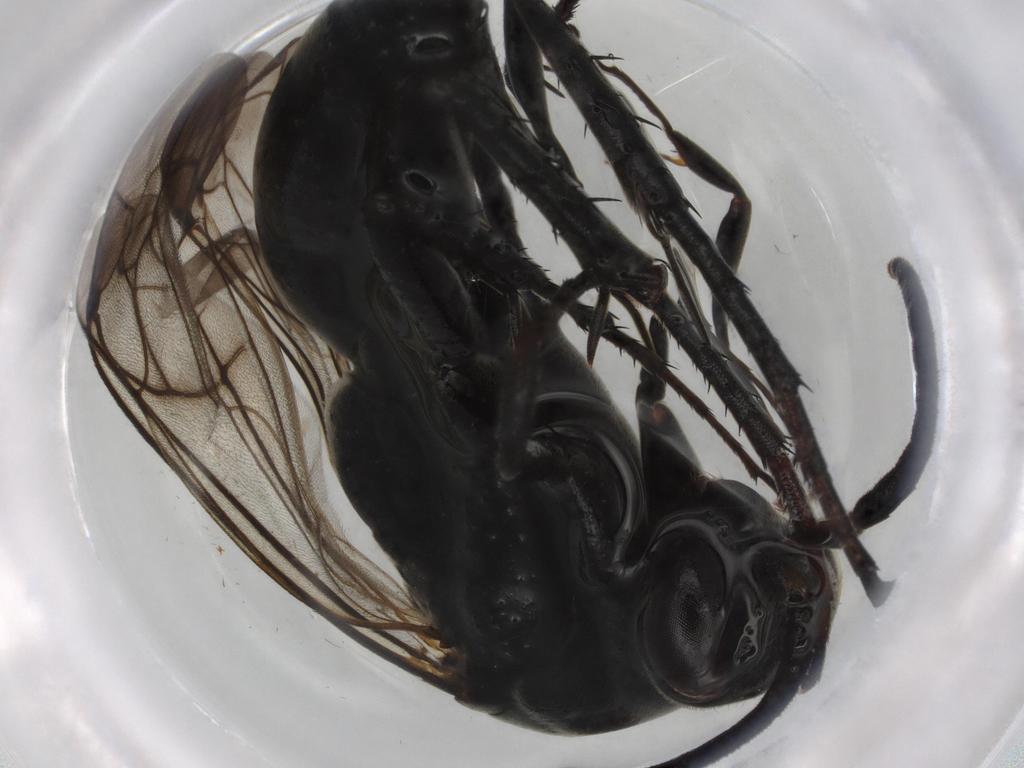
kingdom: Animalia
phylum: Arthropoda
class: Insecta
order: Hymenoptera
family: Pompilidae
